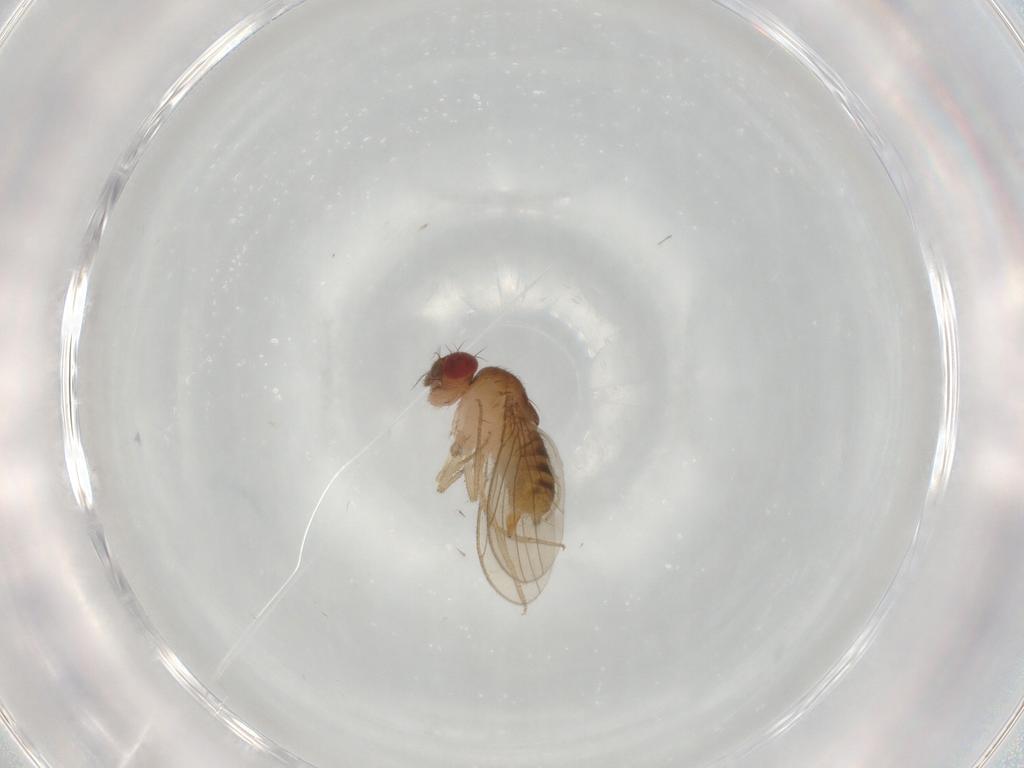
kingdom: Animalia
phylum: Arthropoda
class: Insecta
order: Diptera
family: Drosophilidae
